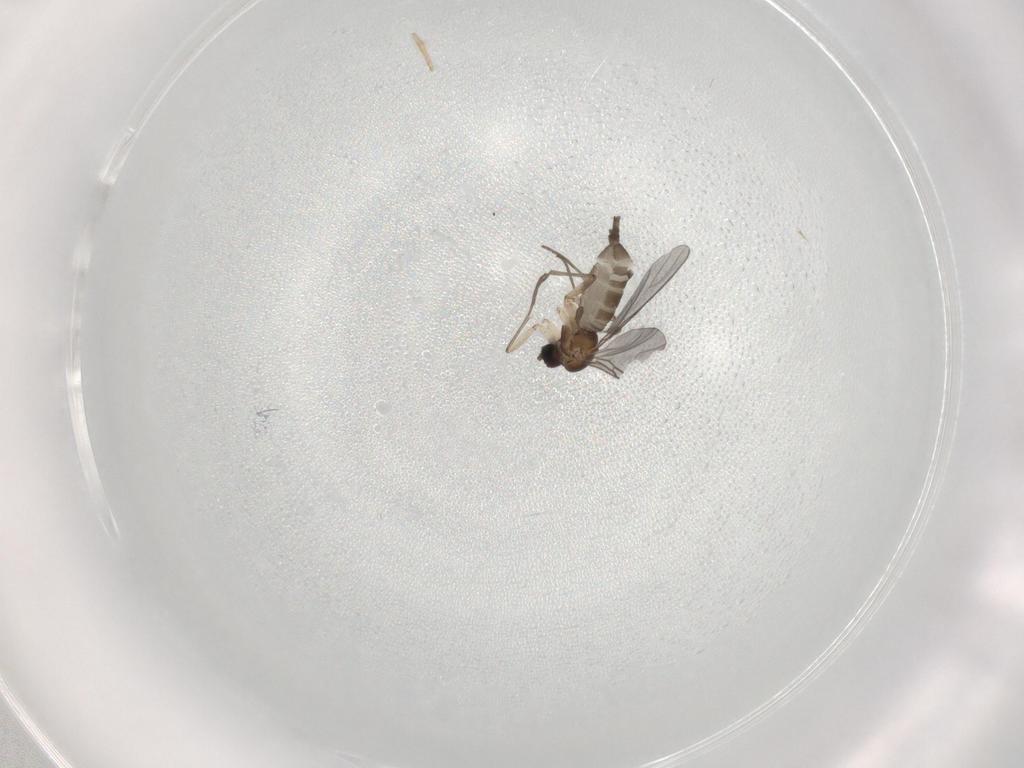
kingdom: Animalia
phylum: Arthropoda
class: Insecta
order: Diptera
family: Sciaridae
